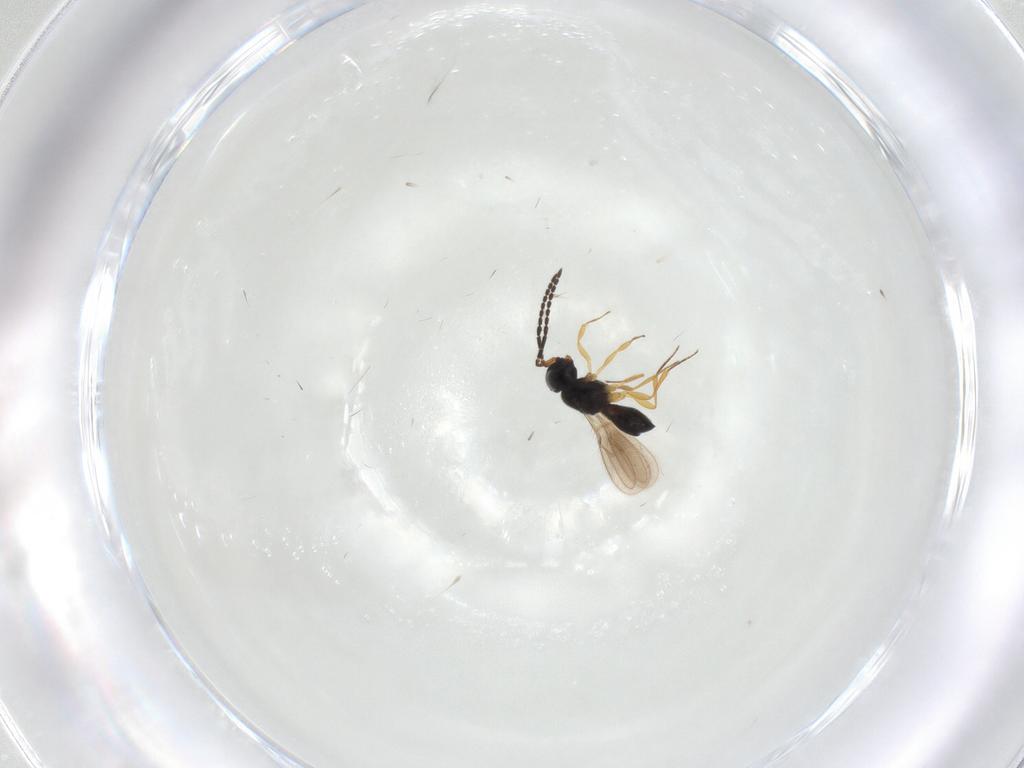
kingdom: Animalia
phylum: Arthropoda
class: Insecta
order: Hymenoptera
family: Scelionidae
